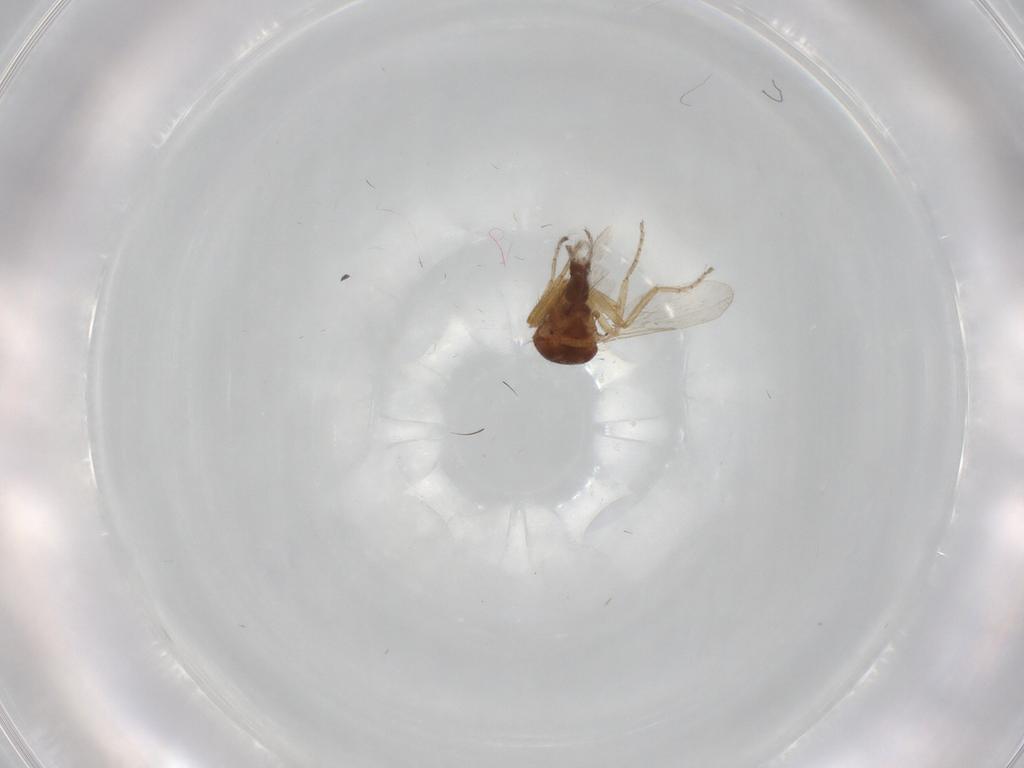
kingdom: Animalia
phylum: Arthropoda
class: Insecta
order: Diptera
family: Ceratopogonidae
